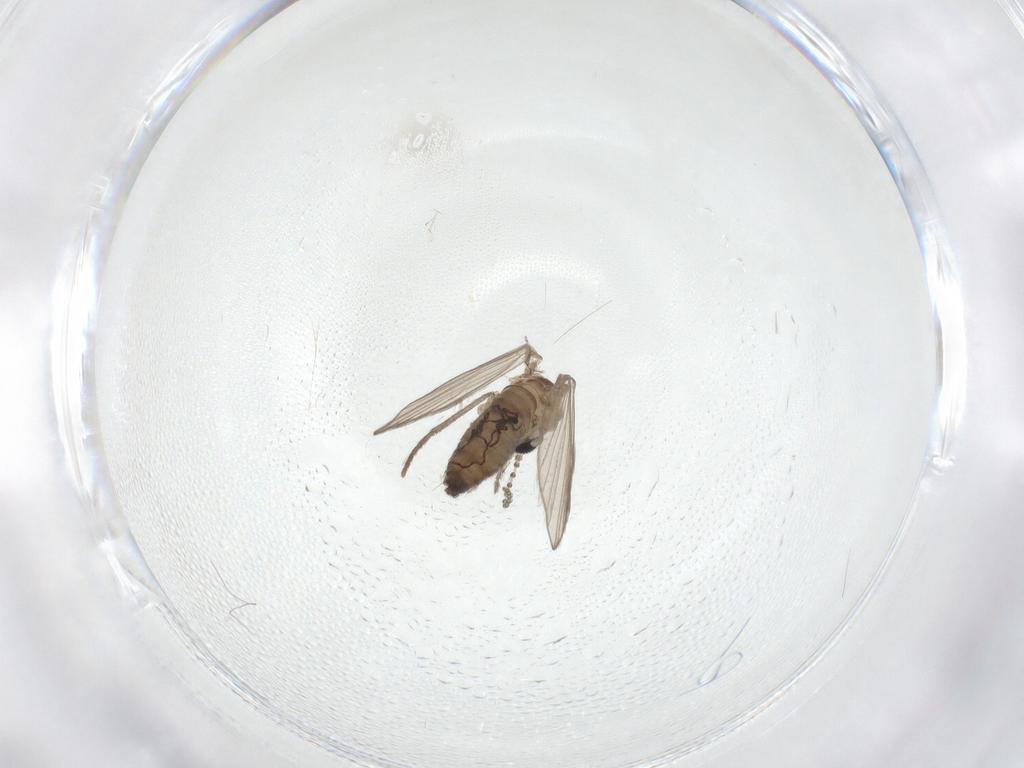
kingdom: Animalia
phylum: Arthropoda
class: Insecta
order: Diptera
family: Psychodidae
